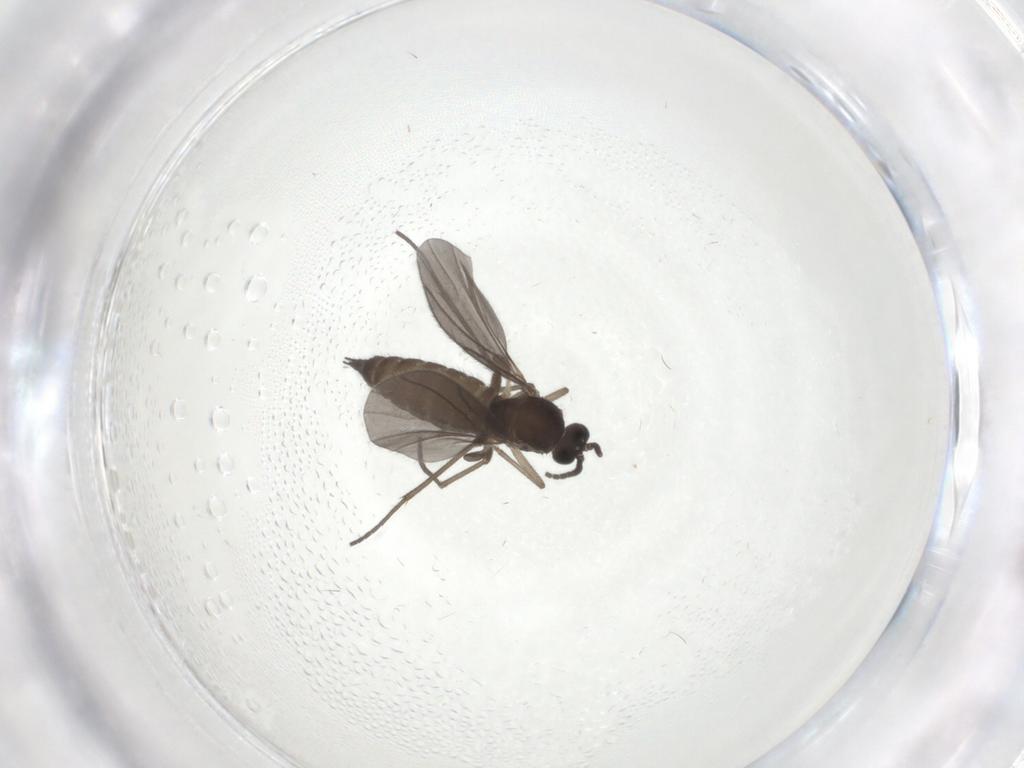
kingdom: Animalia
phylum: Arthropoda
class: Insecta
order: Diptera
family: Sciaridae
